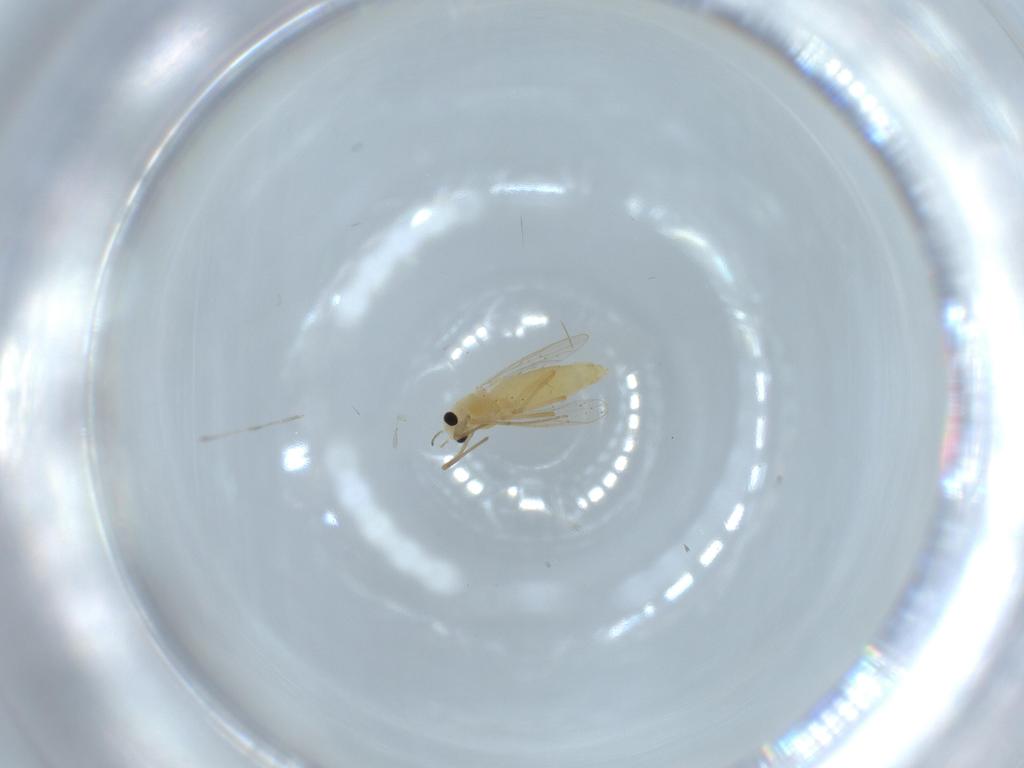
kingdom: Animalia
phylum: Arthropoda
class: Insecta
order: Diptera
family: Chironomidae
